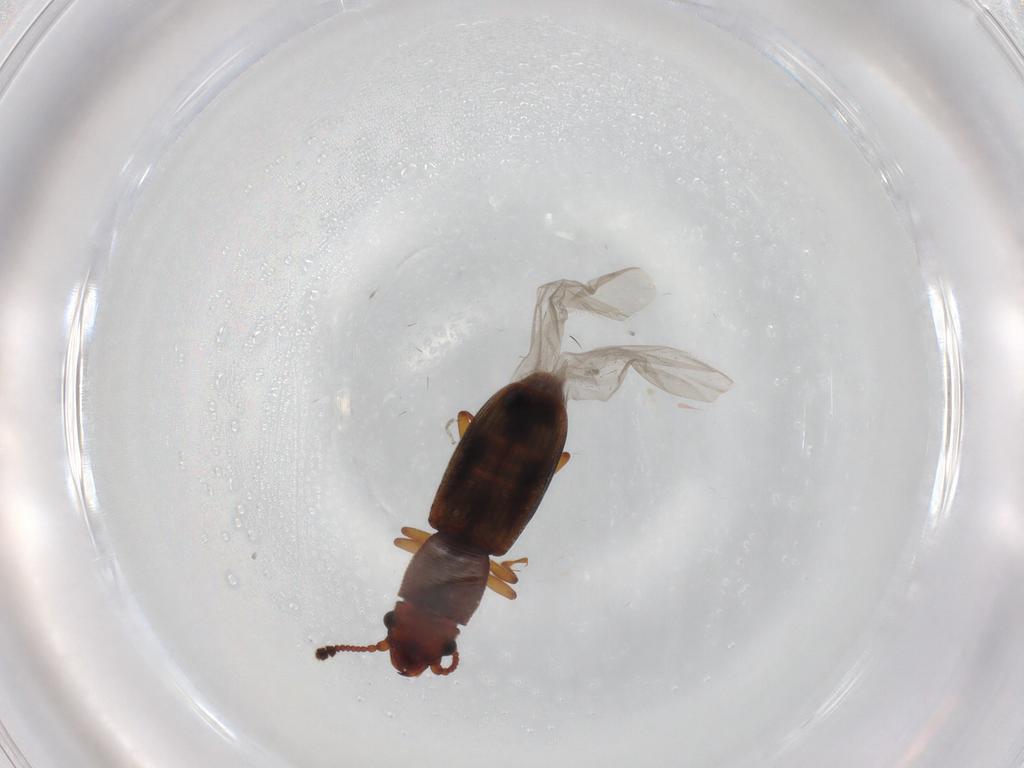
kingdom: Animalia
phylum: Arthropoda
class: Insecta
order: Coleoptera
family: Monotomidae
